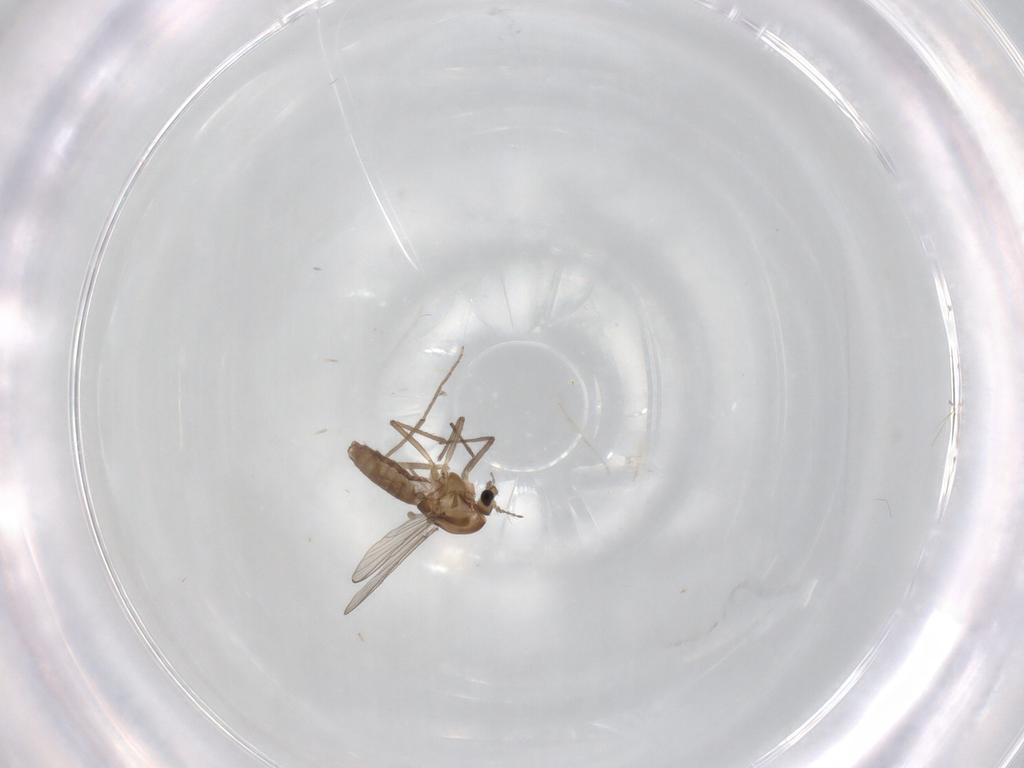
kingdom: Animalia
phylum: Arthropoda
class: Insecta
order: Diptera
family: Chironomidae
